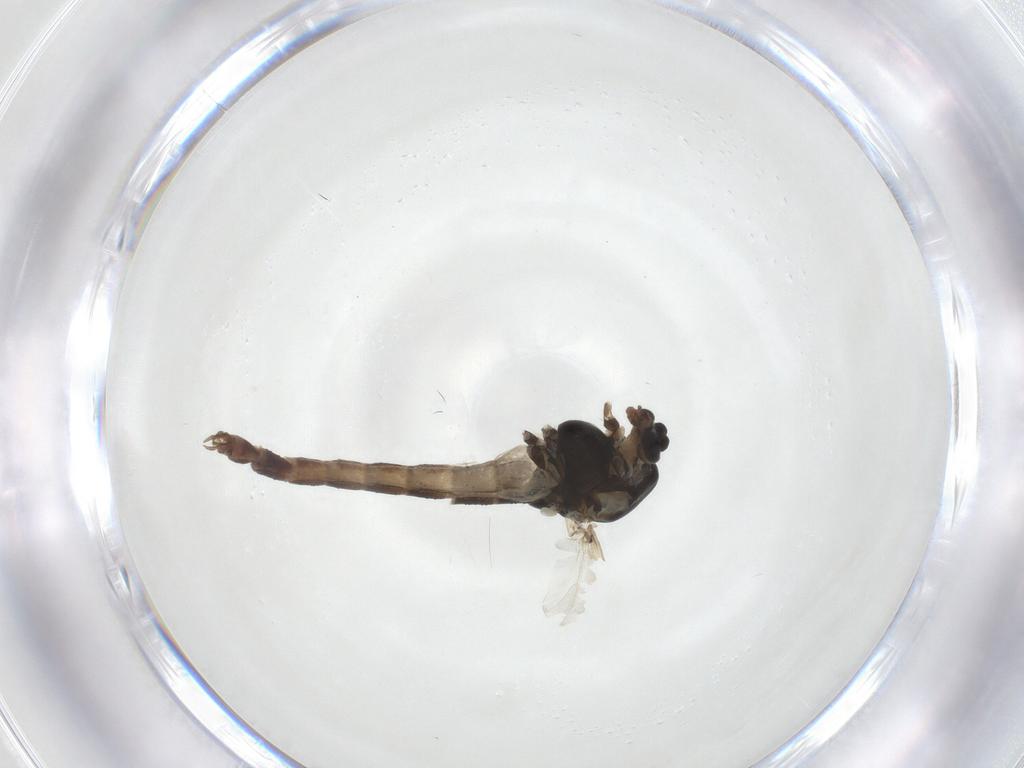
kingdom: Animalia
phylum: Arthropoda
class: Insecta
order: Diptera
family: Chironomidae
